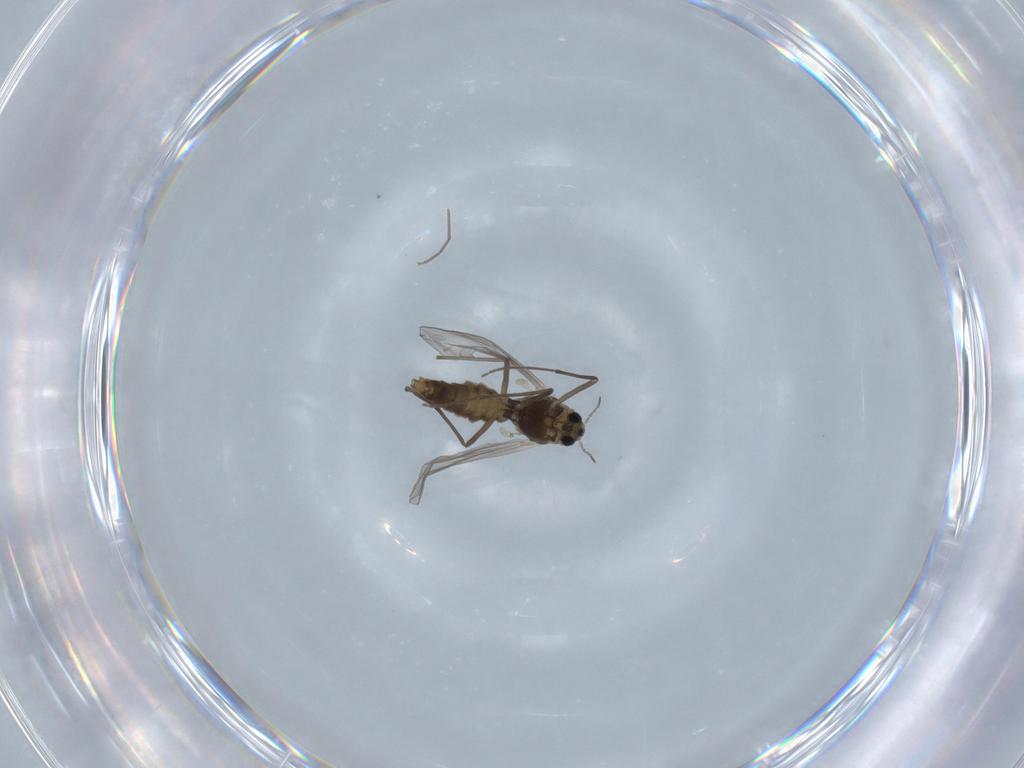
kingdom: Animalia
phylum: Arthropoda
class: Insecta
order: Diptera
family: Chironomidae
